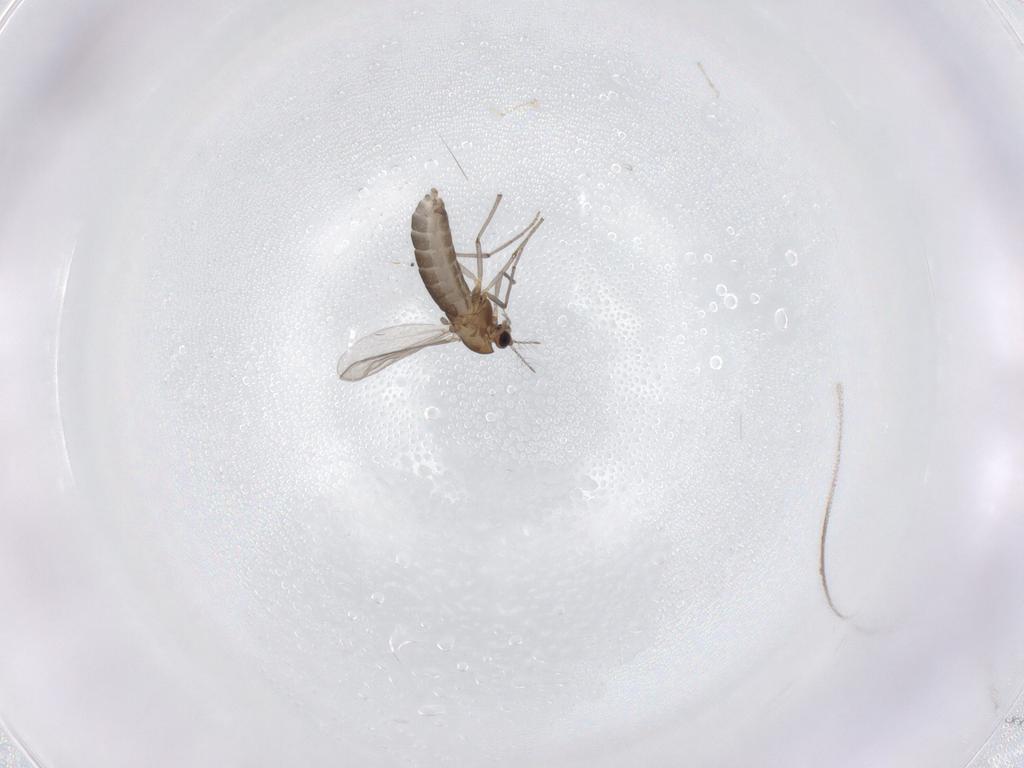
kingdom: Animalia
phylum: Arthropoda
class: Insecta
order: Diptera
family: Chironomidae
